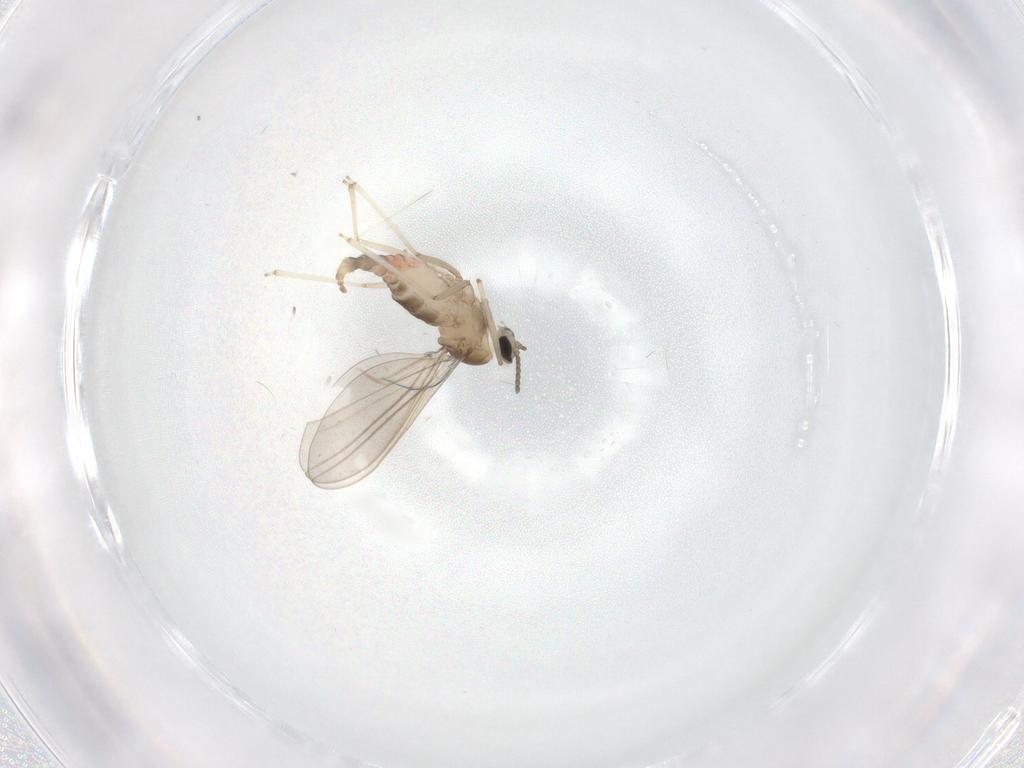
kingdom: Animalia
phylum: Arthropoda
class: Insecta
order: Diptera
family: Cecidomyiidae
